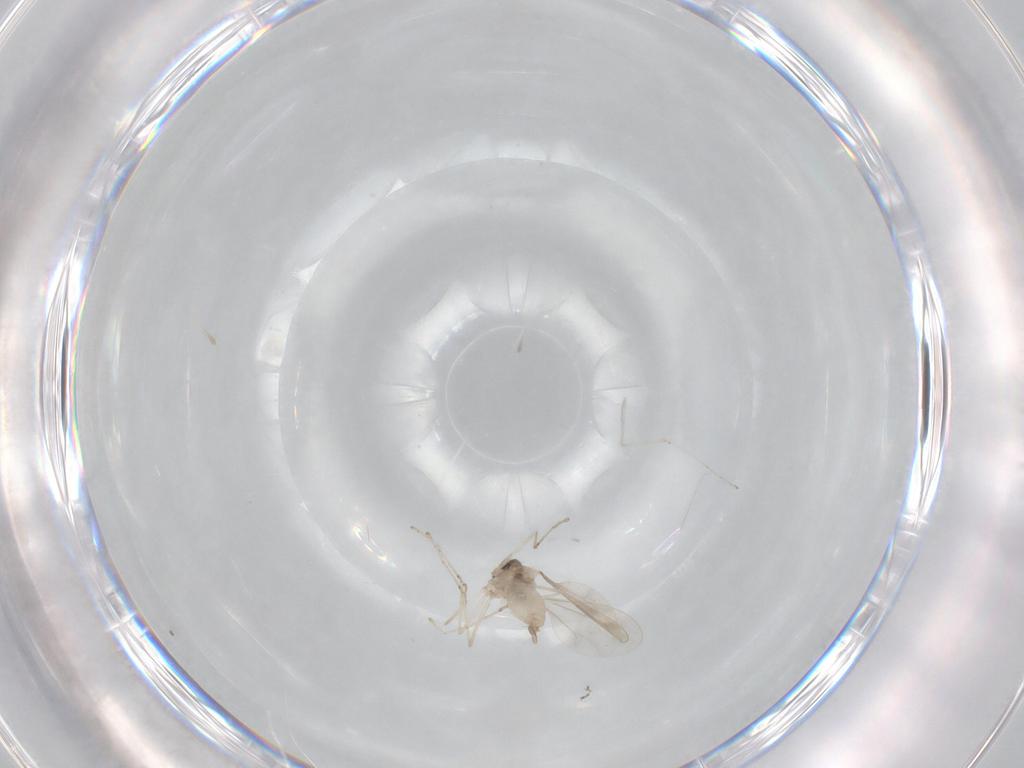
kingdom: Animalia
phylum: Arthropoda
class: Insecta
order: Diptera
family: Cecidomyiidae
